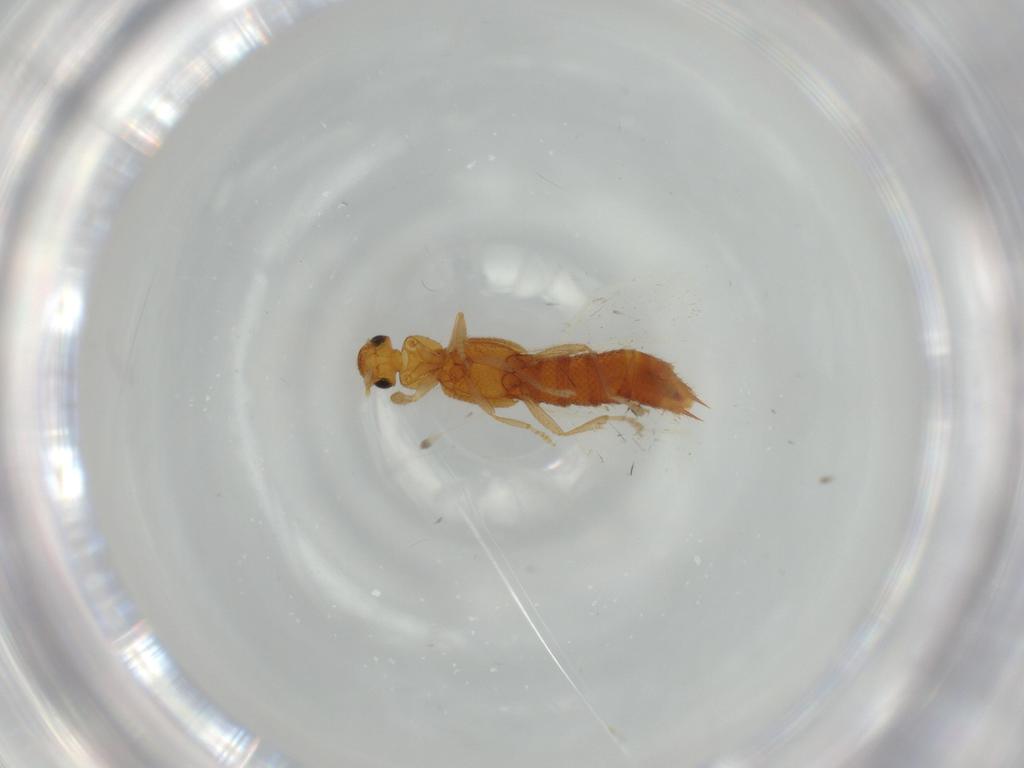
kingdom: Animalia
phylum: Arthropoda
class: Insecta
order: Coleoptera
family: Staphylinidae
